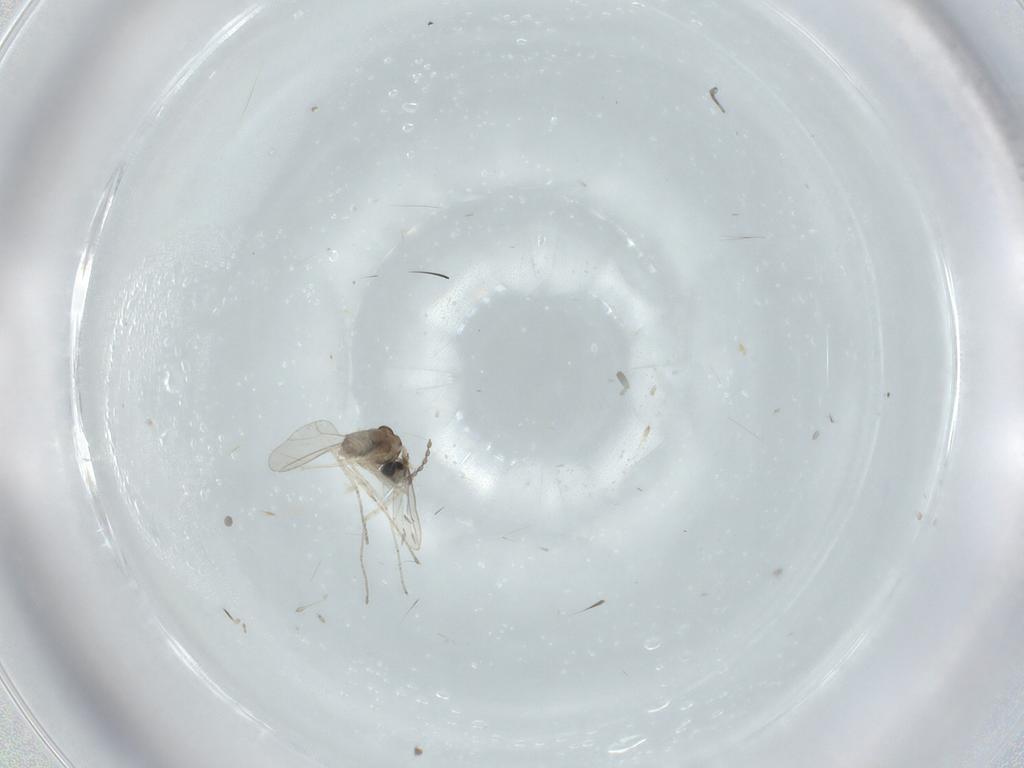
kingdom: Animalia
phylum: Arthropoda
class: Insecta
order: Diptera
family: Cecidomyiidae
